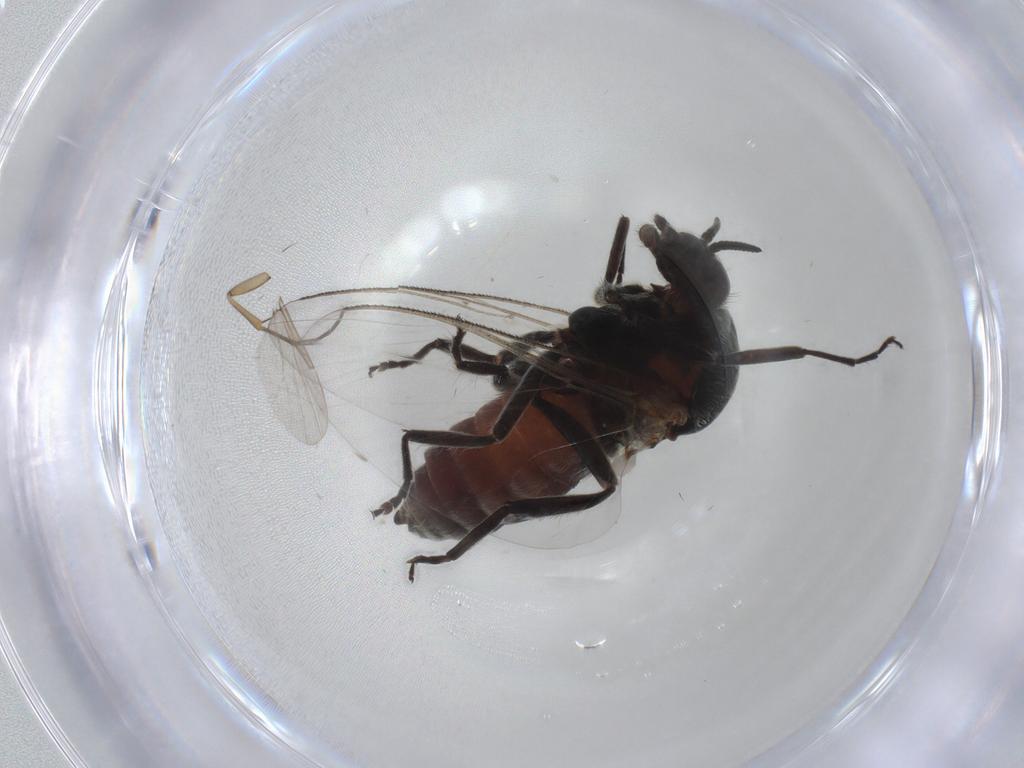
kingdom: Animalia
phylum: Arthropoda
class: Insecta
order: Diptera
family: Cecidomyiidae
